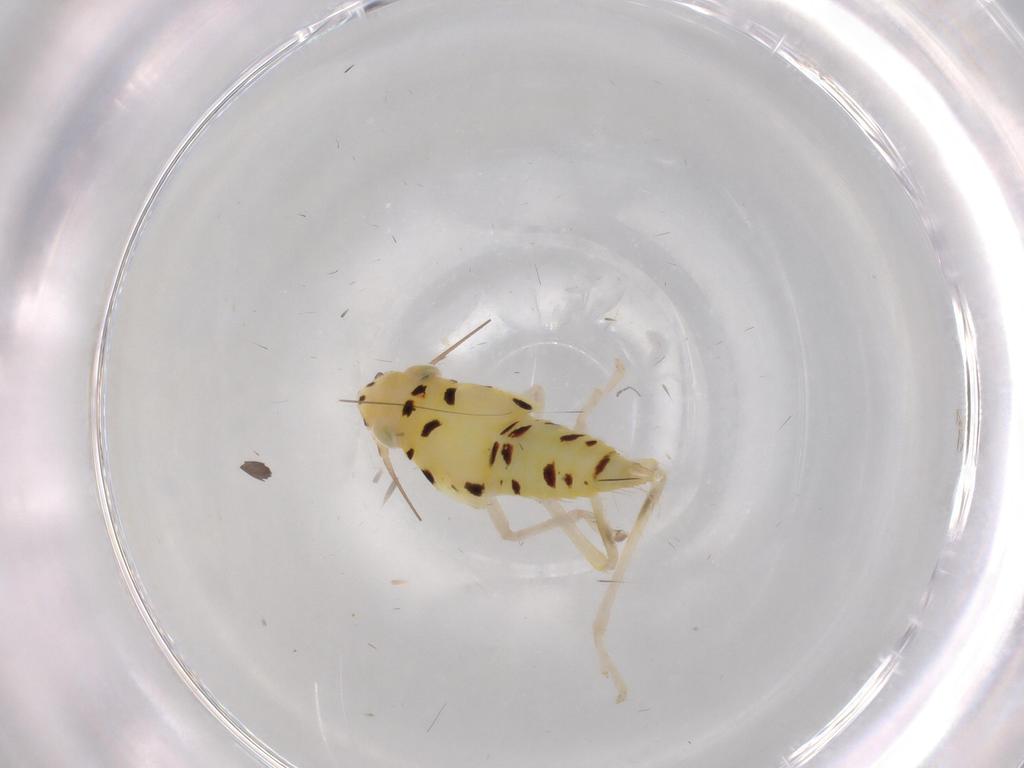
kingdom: Animalia
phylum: Arthropoda
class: Insecta
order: Hemiptera
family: Cicadellidae
